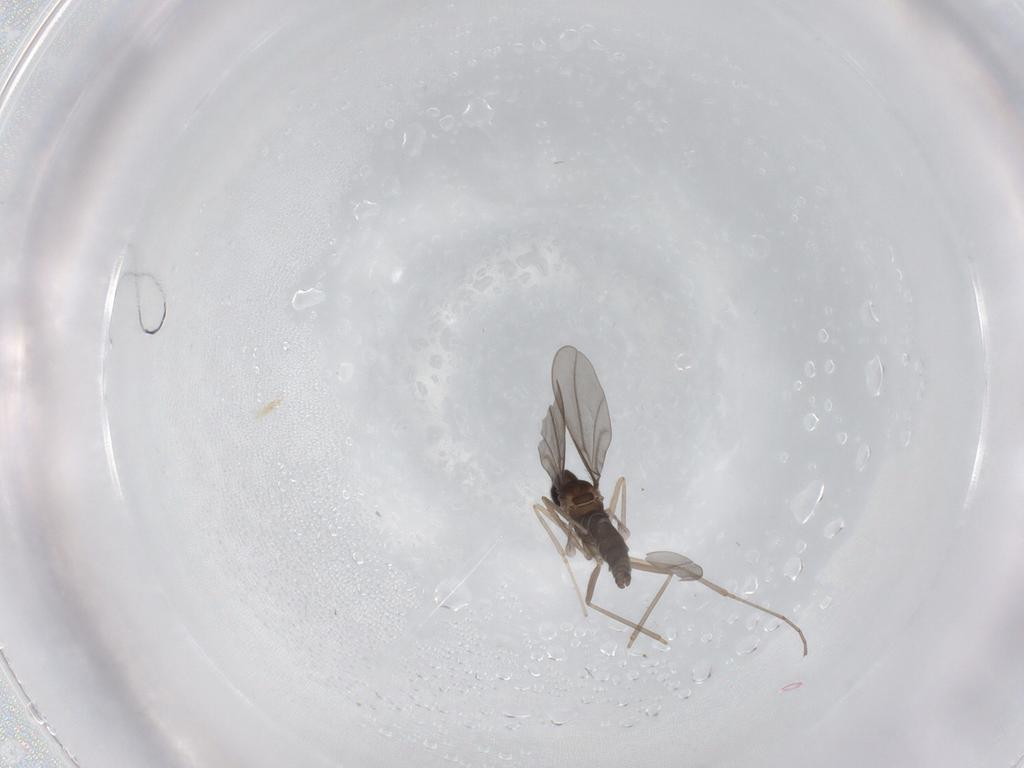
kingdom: Animalia
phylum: Arthropoda
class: Insecta
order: Diptera
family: Cecidomyiidae
